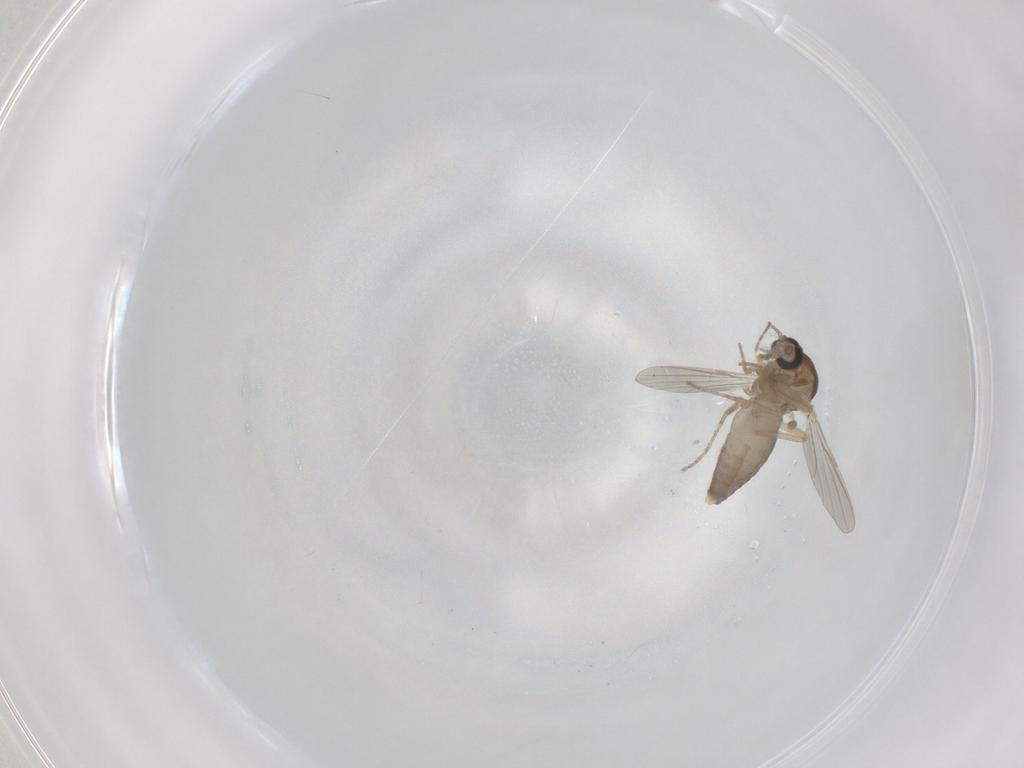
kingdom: Animalia
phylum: Arthropoda
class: Insecta
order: Diptera
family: Ceratopogonidae
